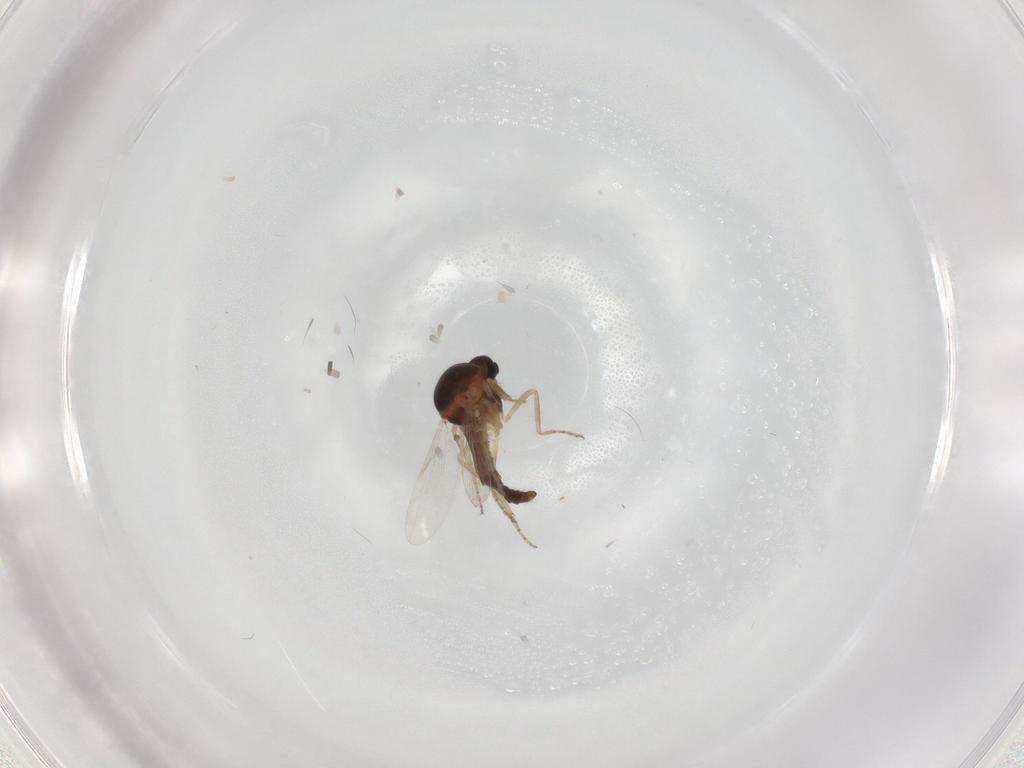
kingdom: Animalia
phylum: Arthropoda
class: Insecta
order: Diptera
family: Ceratopogonidae
